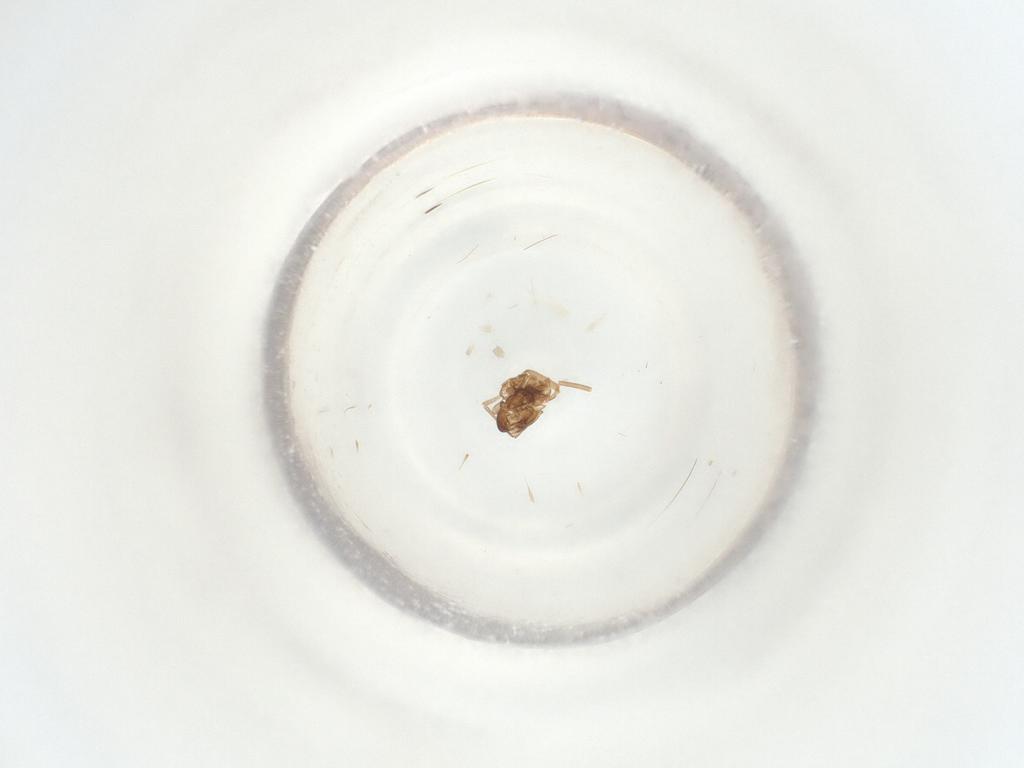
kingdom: Animalia
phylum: Arthropoda
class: Insecta
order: Diptera
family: Sciaridae
